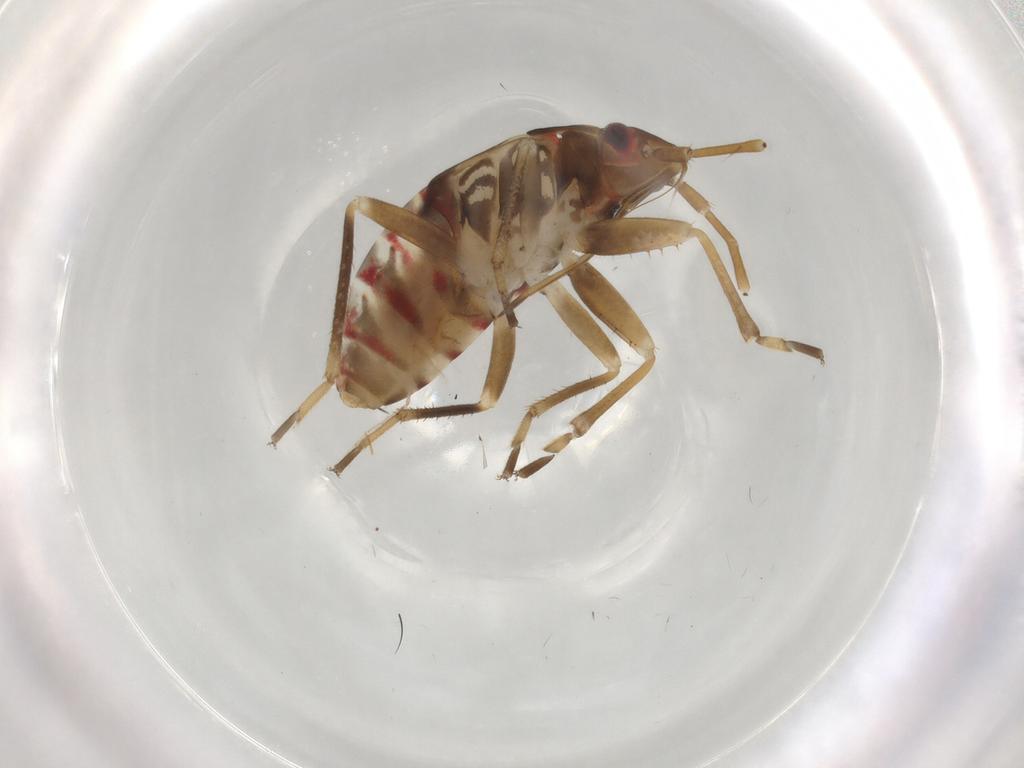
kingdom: Animalia
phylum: Arthropoda
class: Insecta
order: Hemiptera
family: Rhyparochromidae
